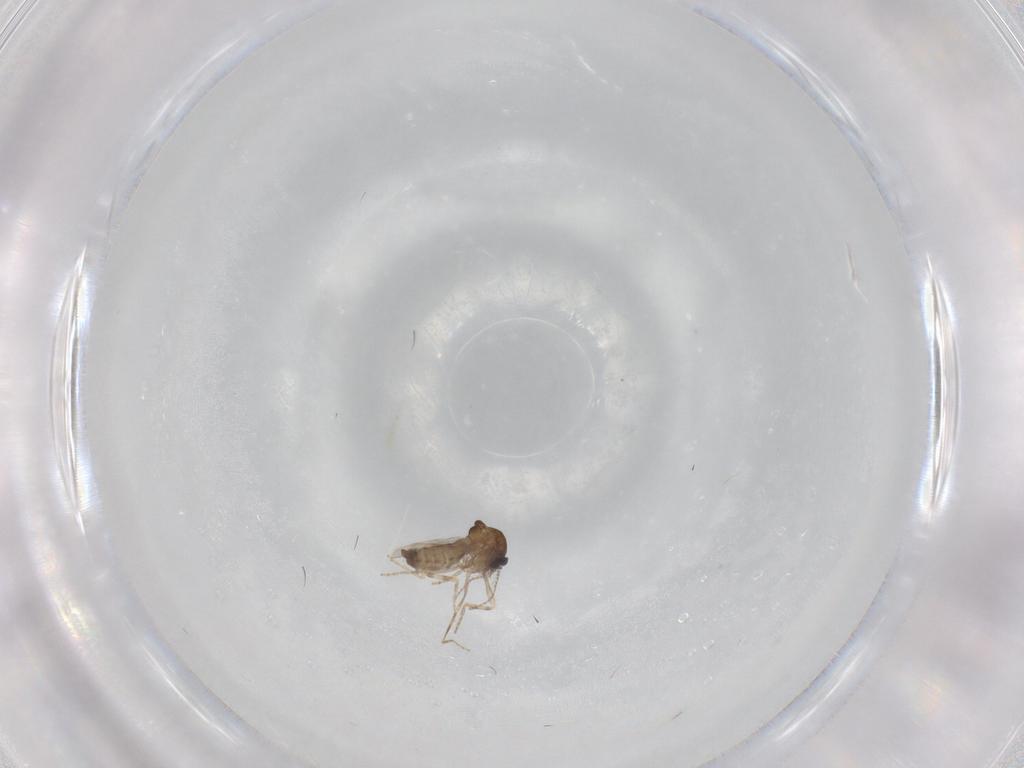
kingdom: Animalia
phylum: Arthropoda
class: Insecta
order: Diptera
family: Ceratopogonidae
